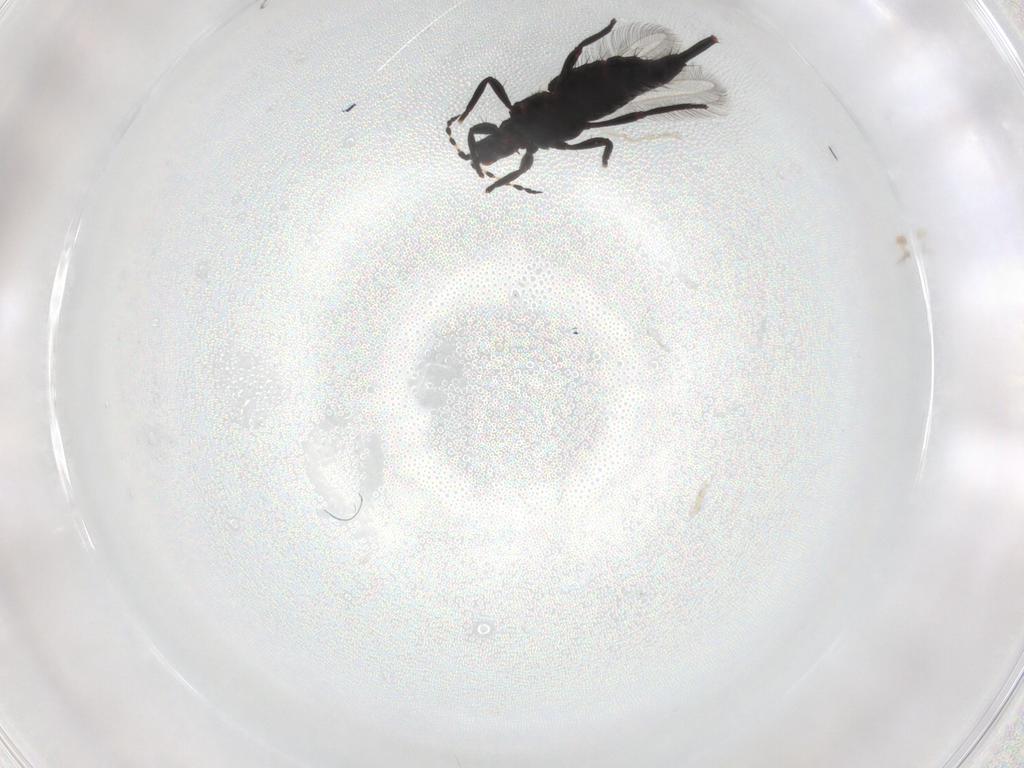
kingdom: Animalia
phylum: Arthropoda
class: Insecta
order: Thysanoptera
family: Phlaeothripidae
